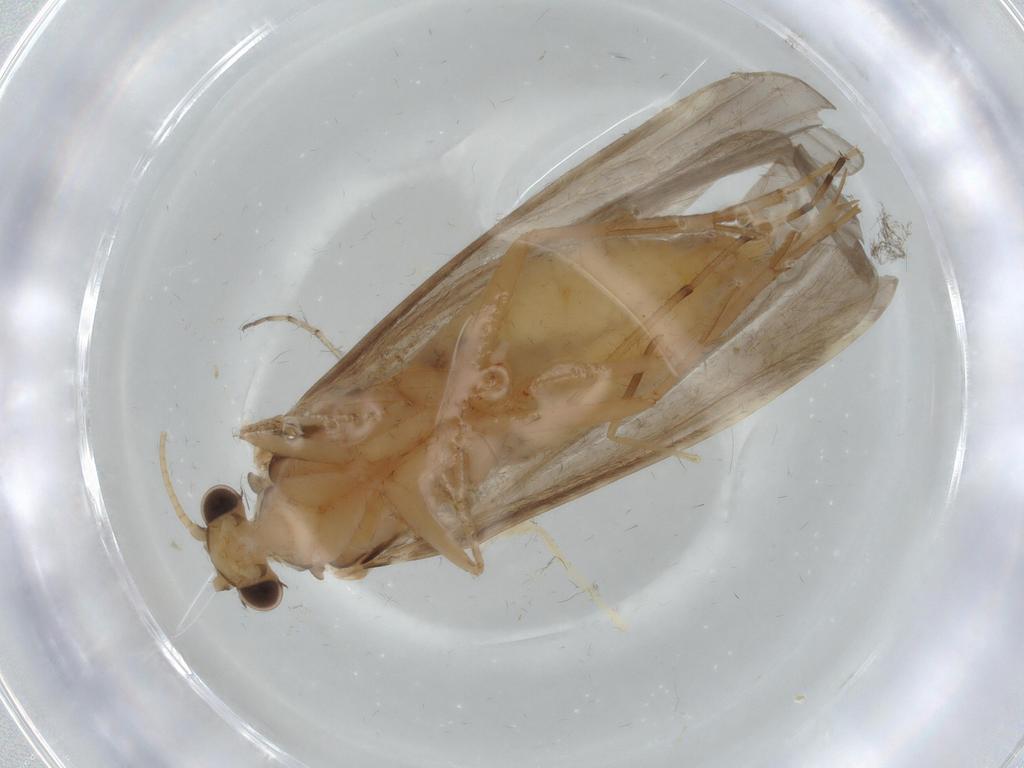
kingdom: Animalia
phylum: Arthropoda
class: Insecta
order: Trichoptera
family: Ecnomidae
